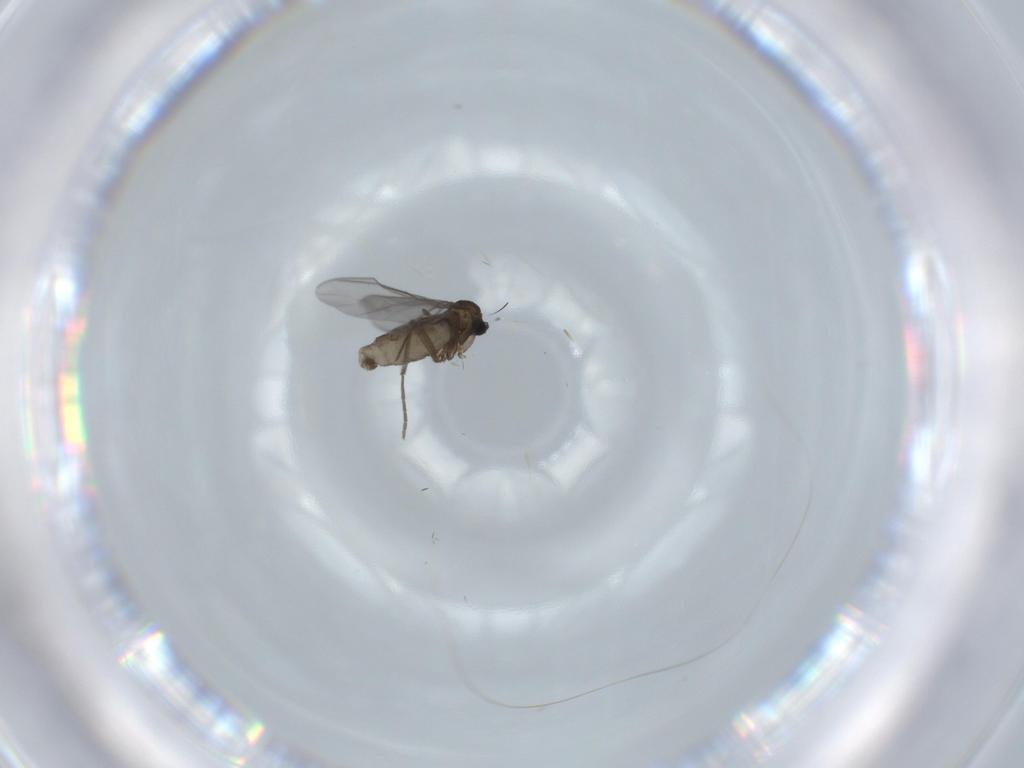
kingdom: Animalia
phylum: Arthropoda
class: Insecta
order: Diptera
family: Sciaridae
